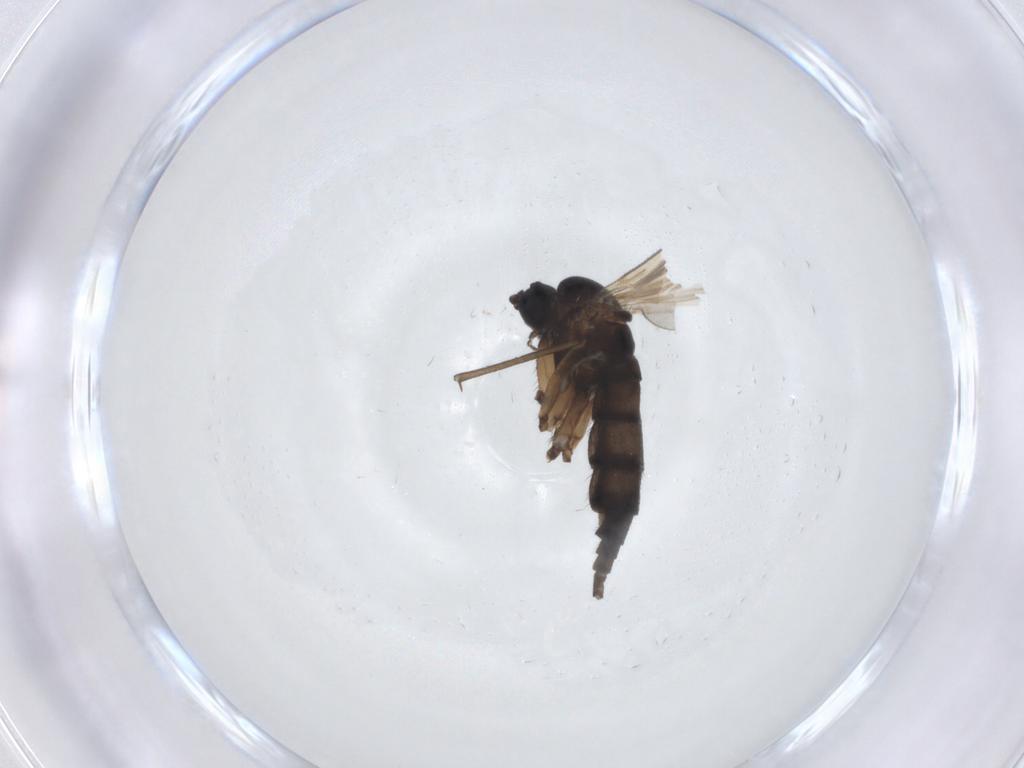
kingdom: Animalia
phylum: Arthropoda
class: Insecta
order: Diptera
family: Sciaridae
